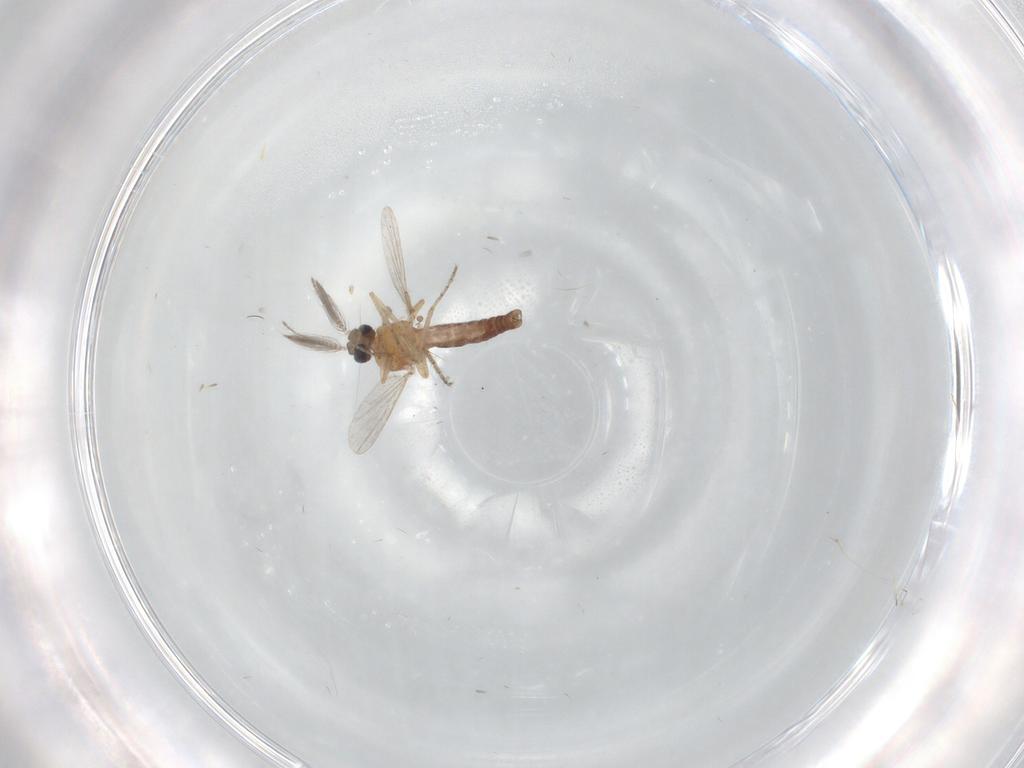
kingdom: Animalia
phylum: Arthropoda
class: Insecta
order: Diptera
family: Ceratopogonidae
